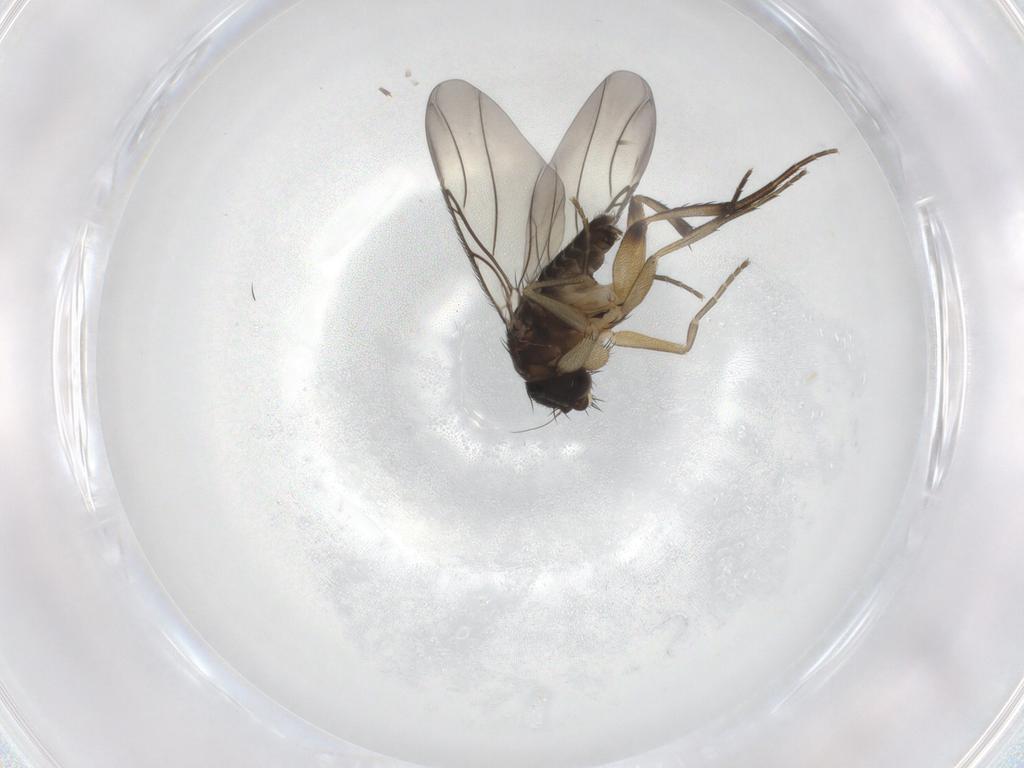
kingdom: Animalia
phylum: Arthropoda
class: Insecta
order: Diptera
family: Phoridae
